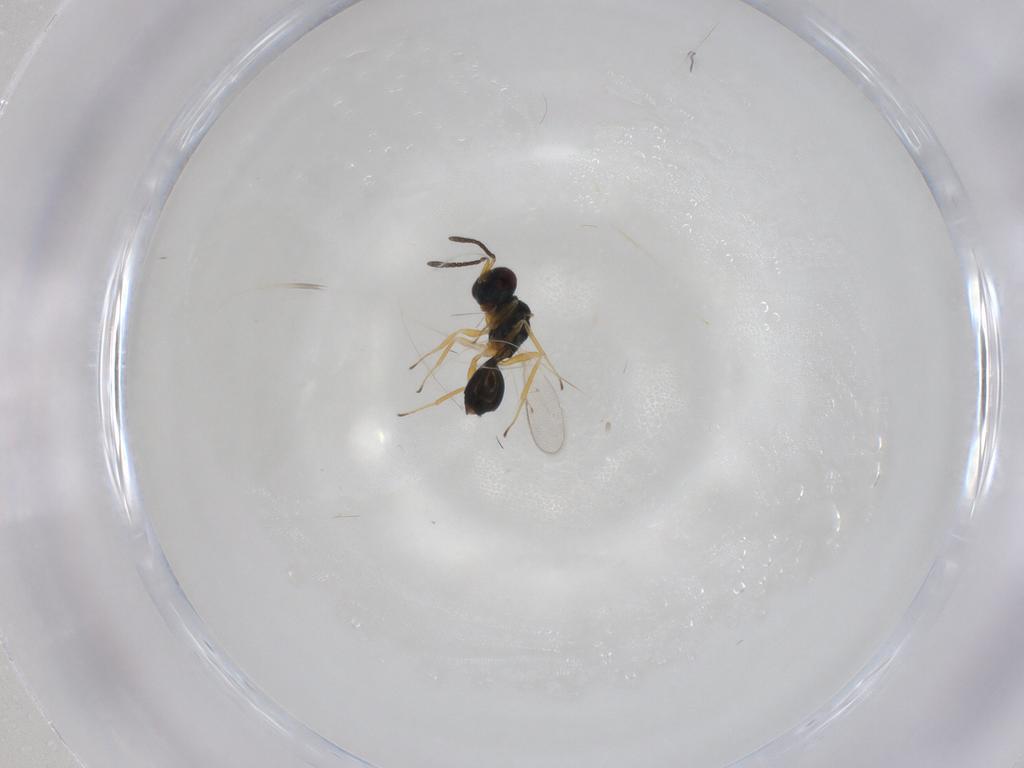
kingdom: Animalia
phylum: Arthropoda
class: Insecta
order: Hymenoptera
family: Pteromalidae
